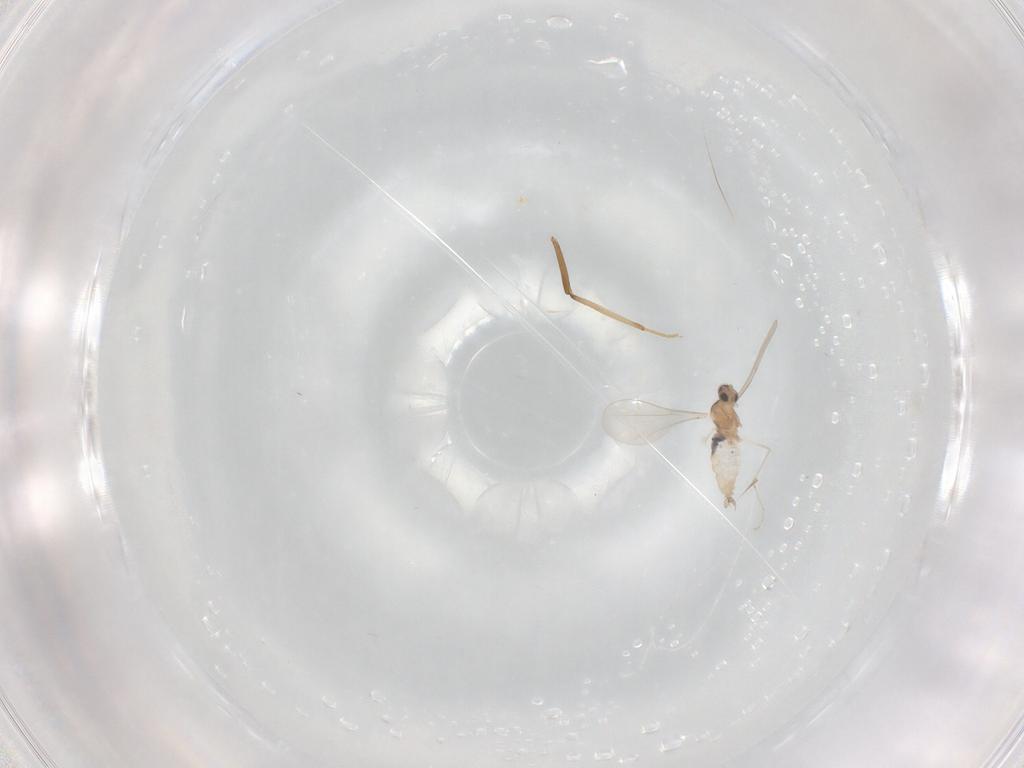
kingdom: Animalia
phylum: Arthropoda
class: Insecta
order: Diptera
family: Cecidomyiidae
